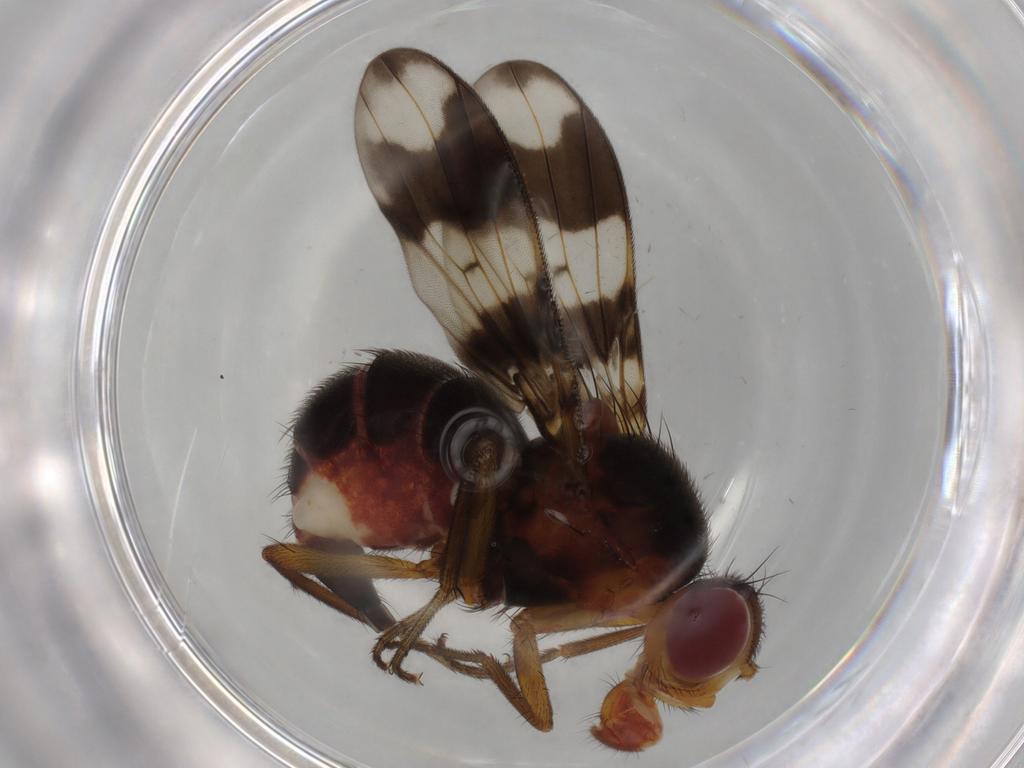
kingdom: Animalia
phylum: Arthropoda
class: Insecta
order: Diptera
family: Richardiidae
